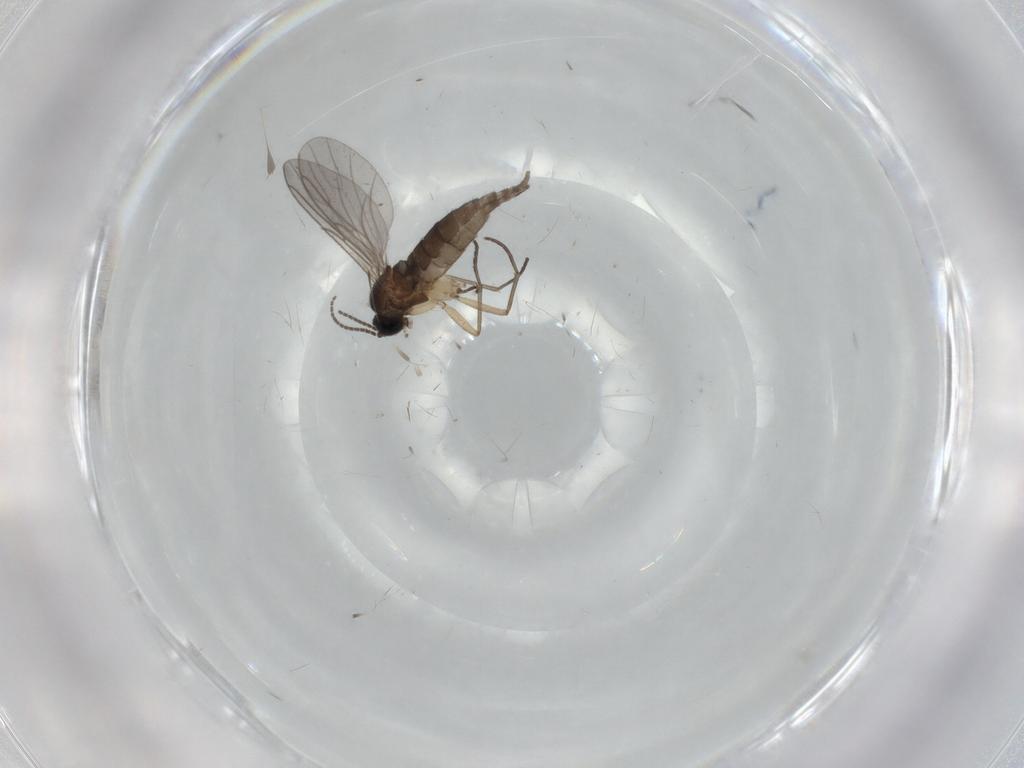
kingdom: Animalia
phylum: Arthropoda
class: Insecta
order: Diptera
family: Sciaridae
